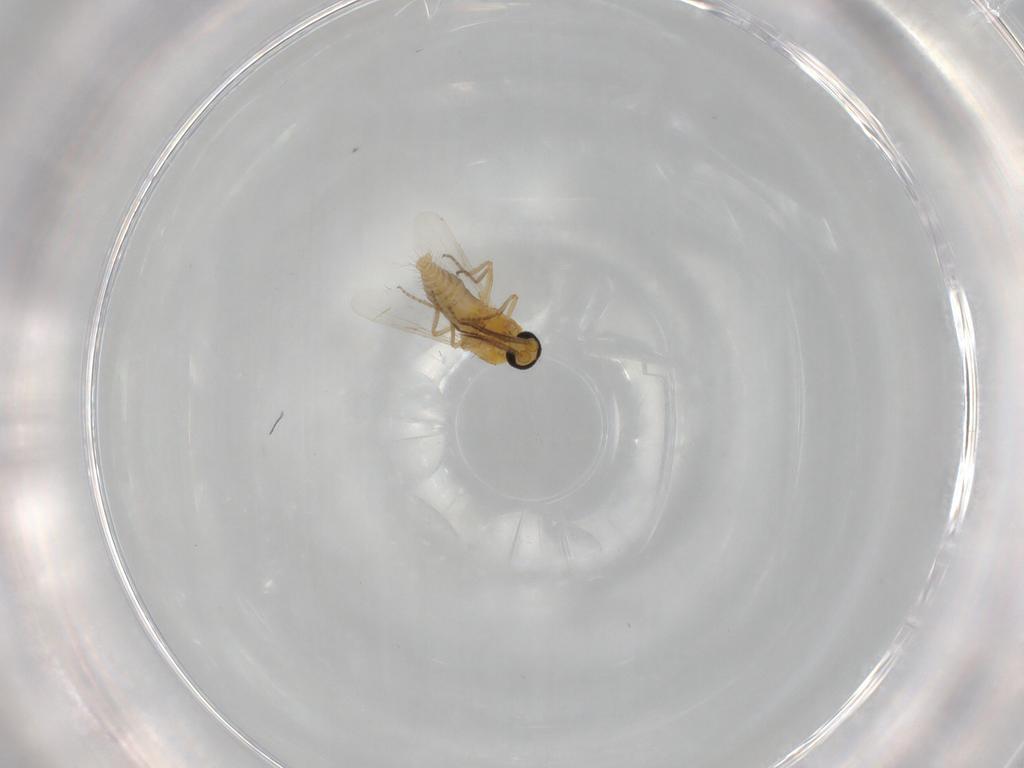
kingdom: Animalia
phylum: Arthropoda
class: Insecta
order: Diptera
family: Ceratopogonidae
